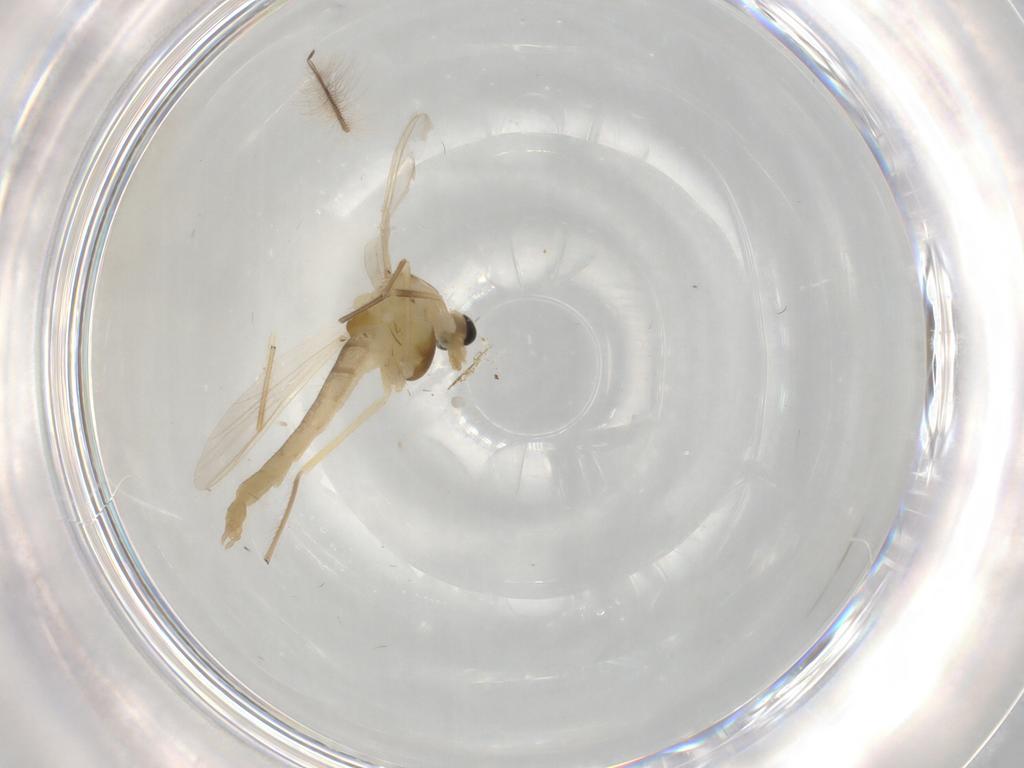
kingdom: Animalia
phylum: Arthropoda
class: Insecta
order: Diptera
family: Chironomidae
